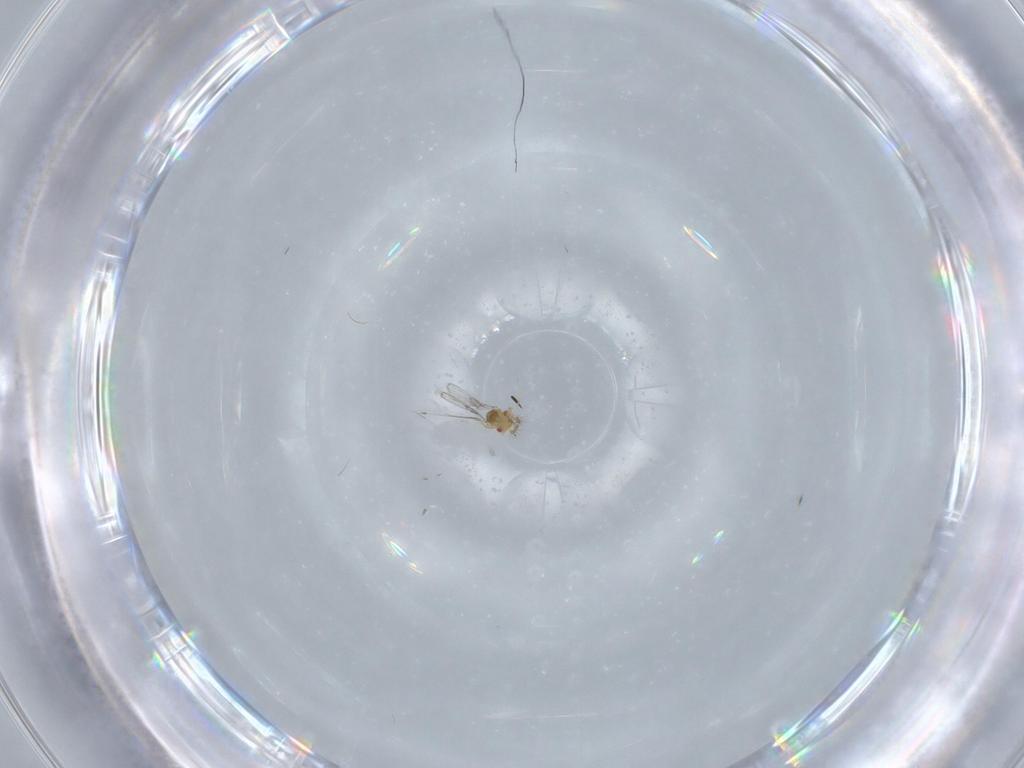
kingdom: Animalia
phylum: Arthropoda
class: Insecta
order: Hymenoptera
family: Trichogrammatidae
